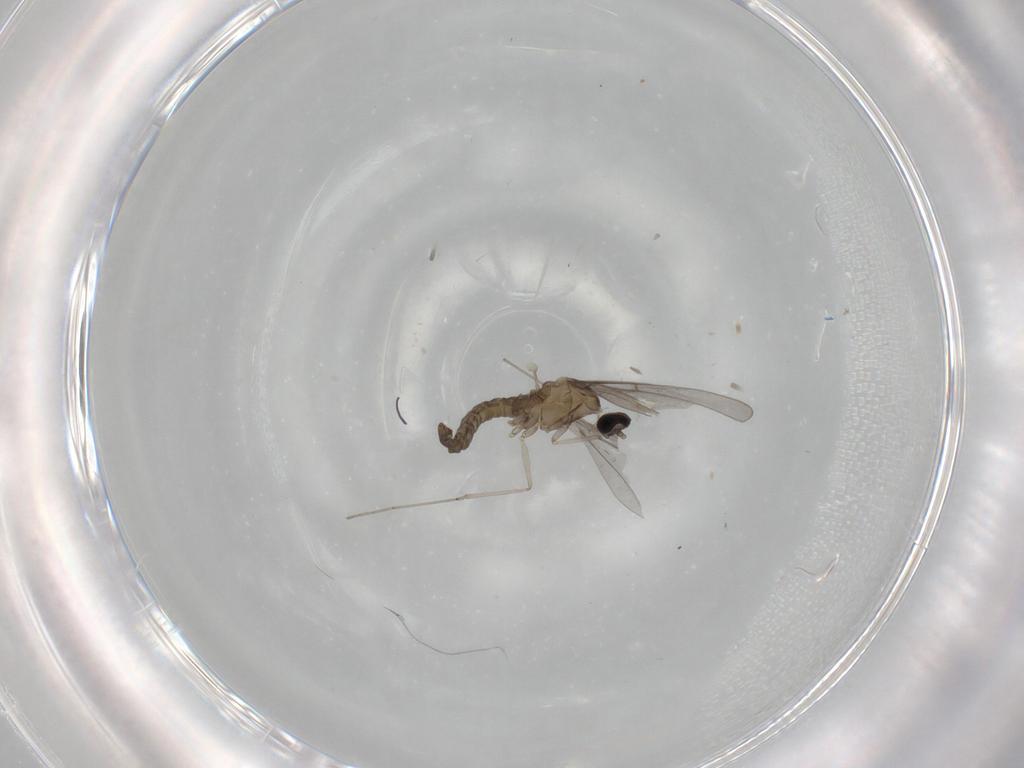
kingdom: Animalia
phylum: Arthropoda
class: Insecta
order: Diptera
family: Cecidomyiidae
